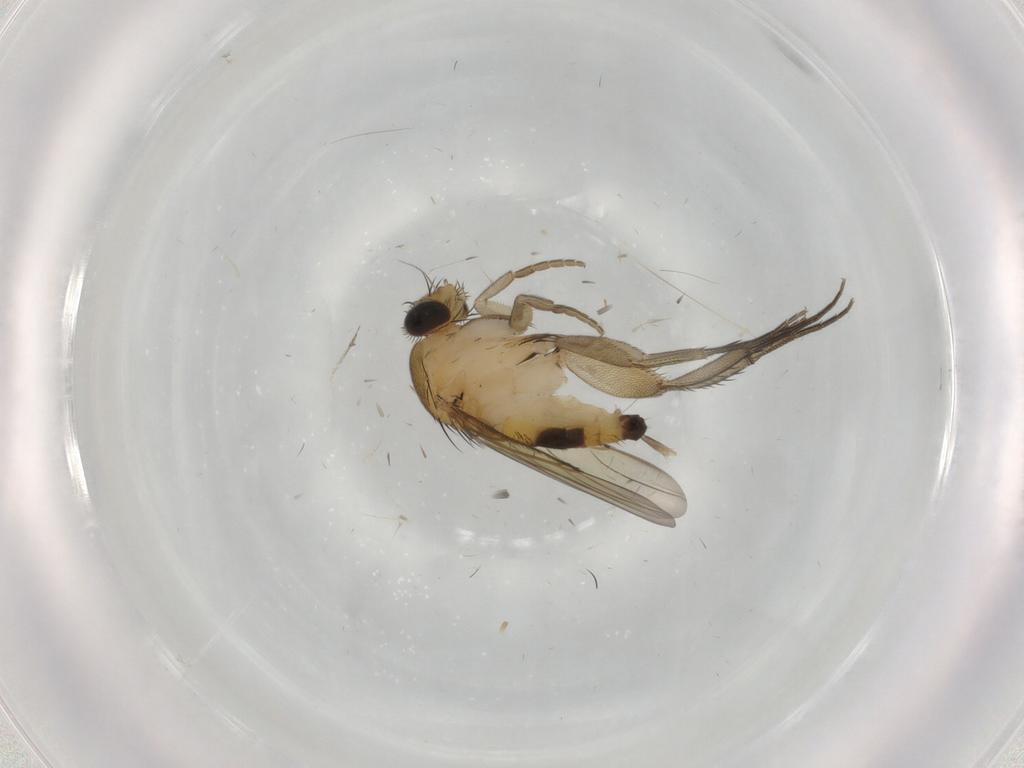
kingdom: Animalia
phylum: Arthropoda
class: Insecta
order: Diptera
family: Phoridae
